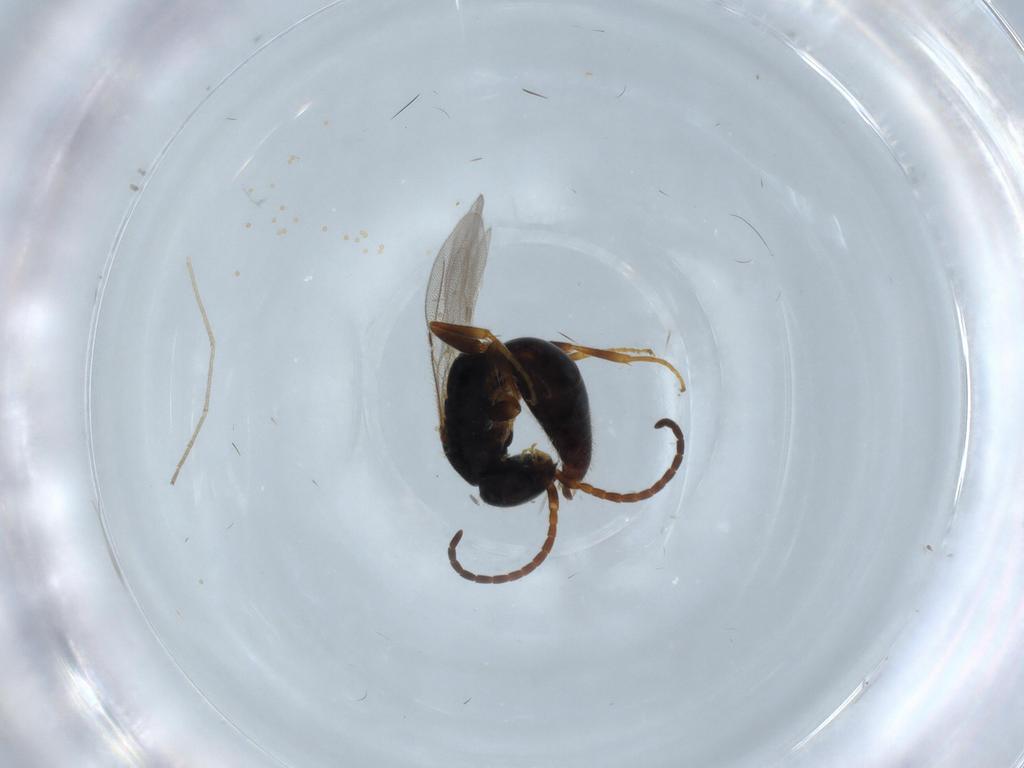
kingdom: Animalia
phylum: Arthropoda
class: Insecta
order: Hymenoptera
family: Bethylidae
